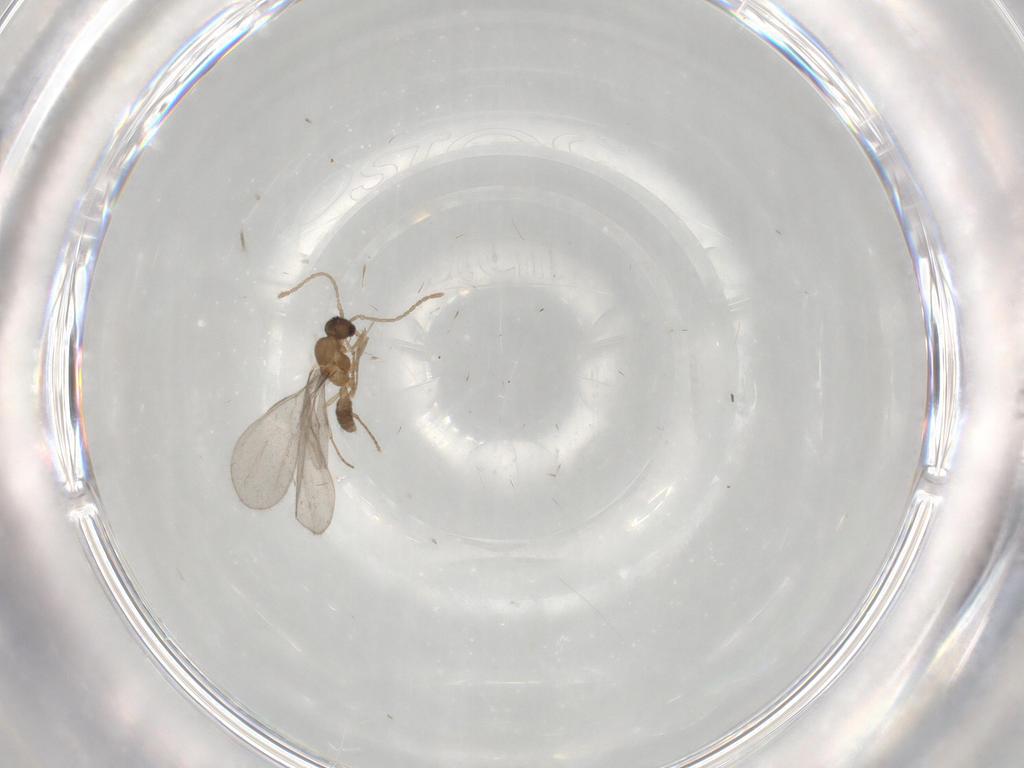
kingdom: Animalia
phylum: Arthropoda
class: Insecta
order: Hymenoptera
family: Formicidae
